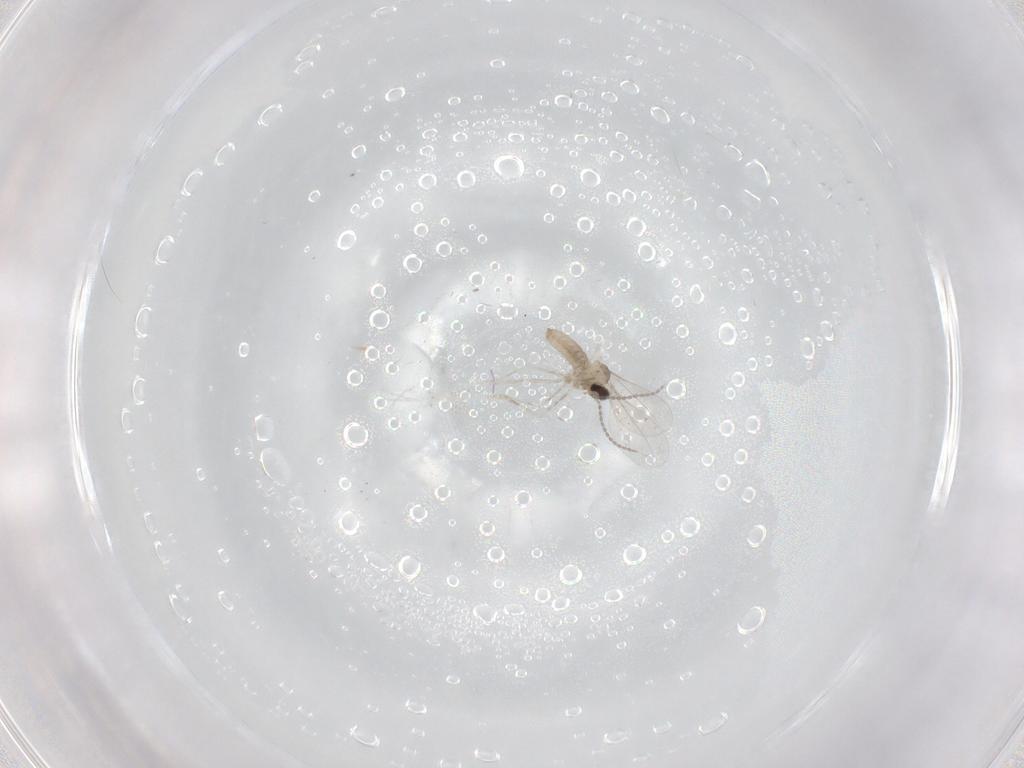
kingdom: Animalia
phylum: Arthropoda
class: Insecta
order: Diptera
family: Cecidomyiidae
